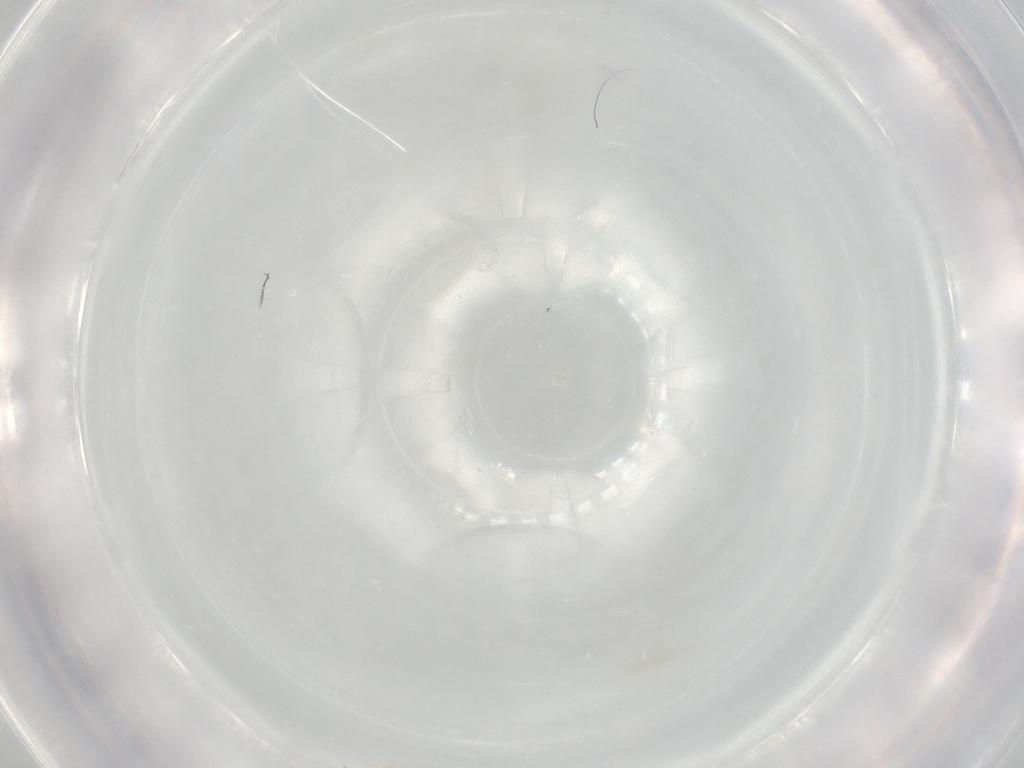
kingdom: Animalia
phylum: Arthropoda
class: Insecta
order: Diptera
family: Chironomidae
